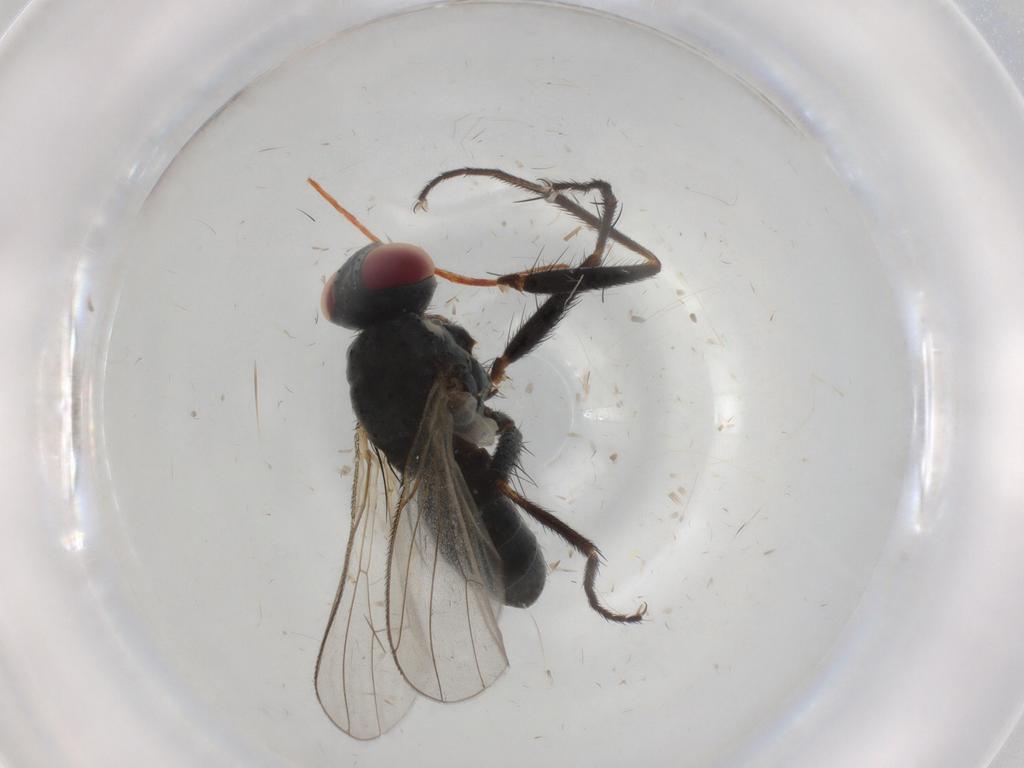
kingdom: Animalia
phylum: Arthropoda
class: Insecta
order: Diptera
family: Muscidae
